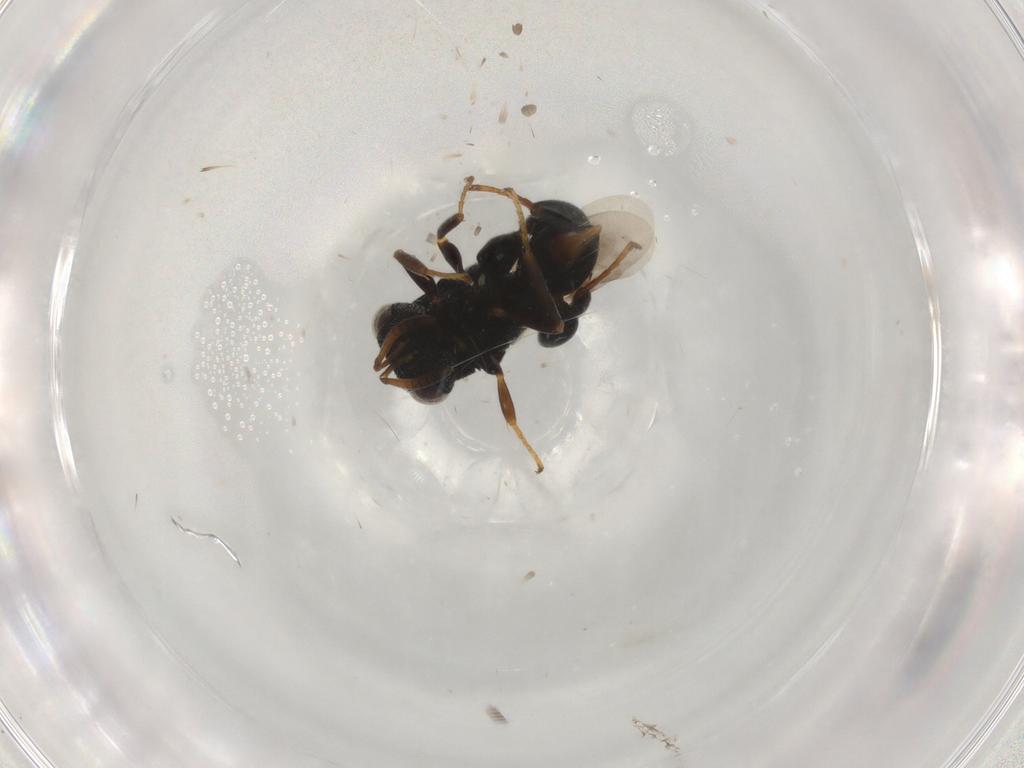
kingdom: Animalia
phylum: Arthropoda
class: Insecta
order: Hymenoptera
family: Chalcididae
